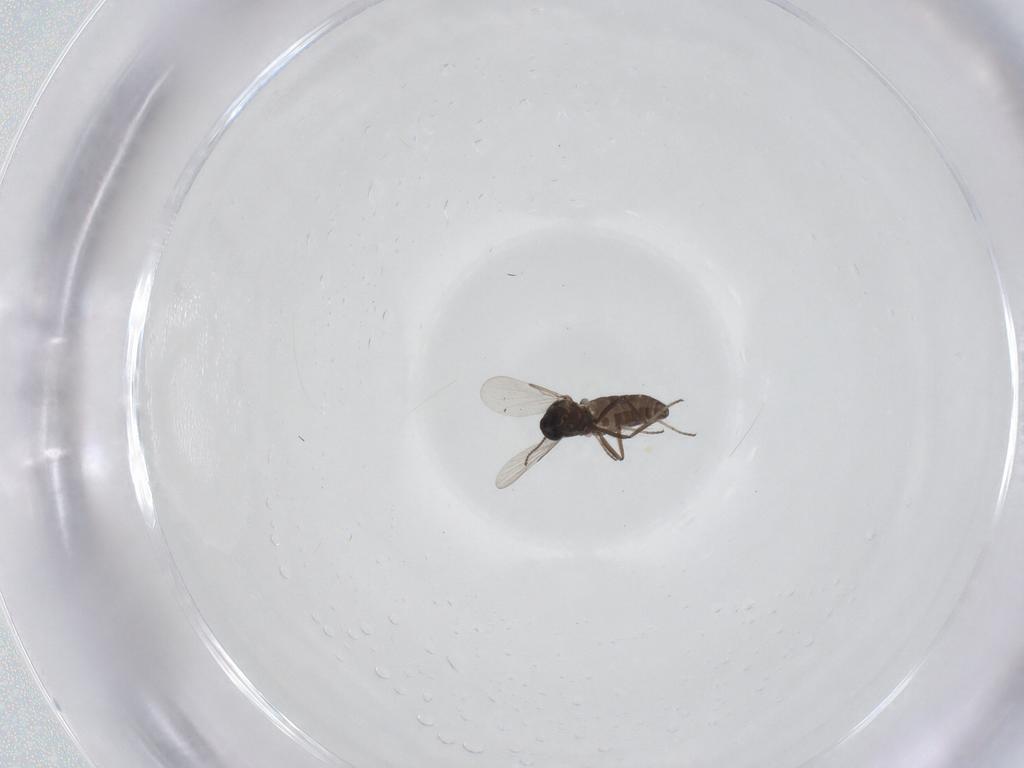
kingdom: Animalia
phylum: Arthropoda
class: Insecta
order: Diptera
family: Ceratopogonidae
